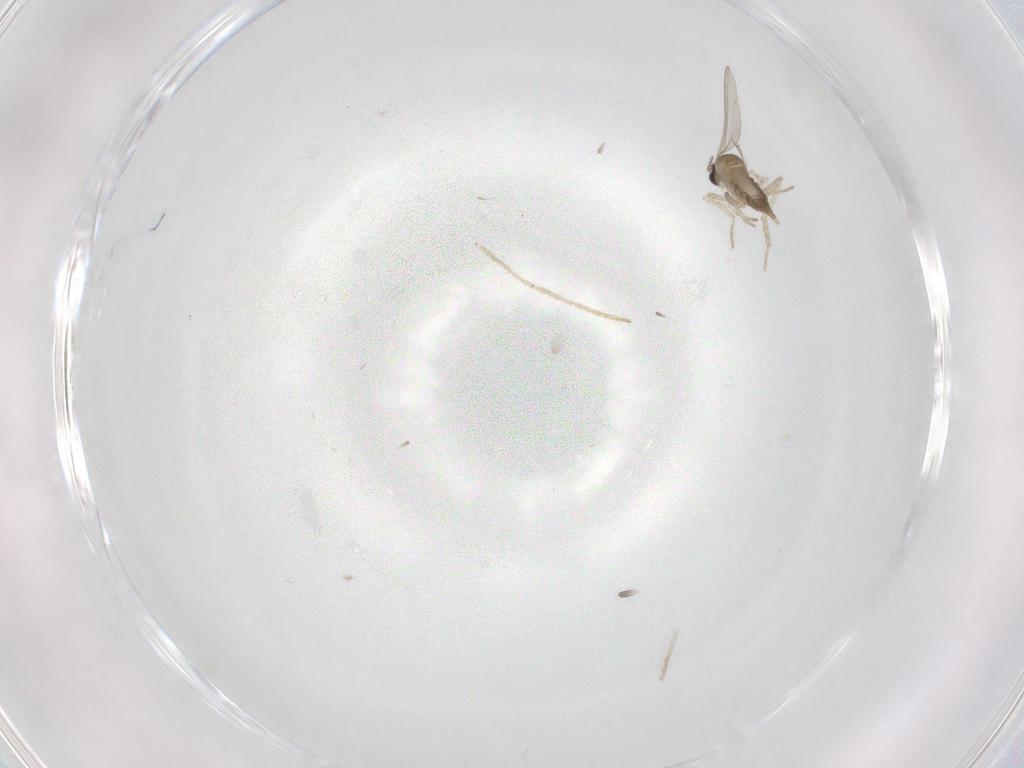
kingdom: Animalia
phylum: Arthropoda
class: Insecta
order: Diptera
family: Cecidomyiidae
